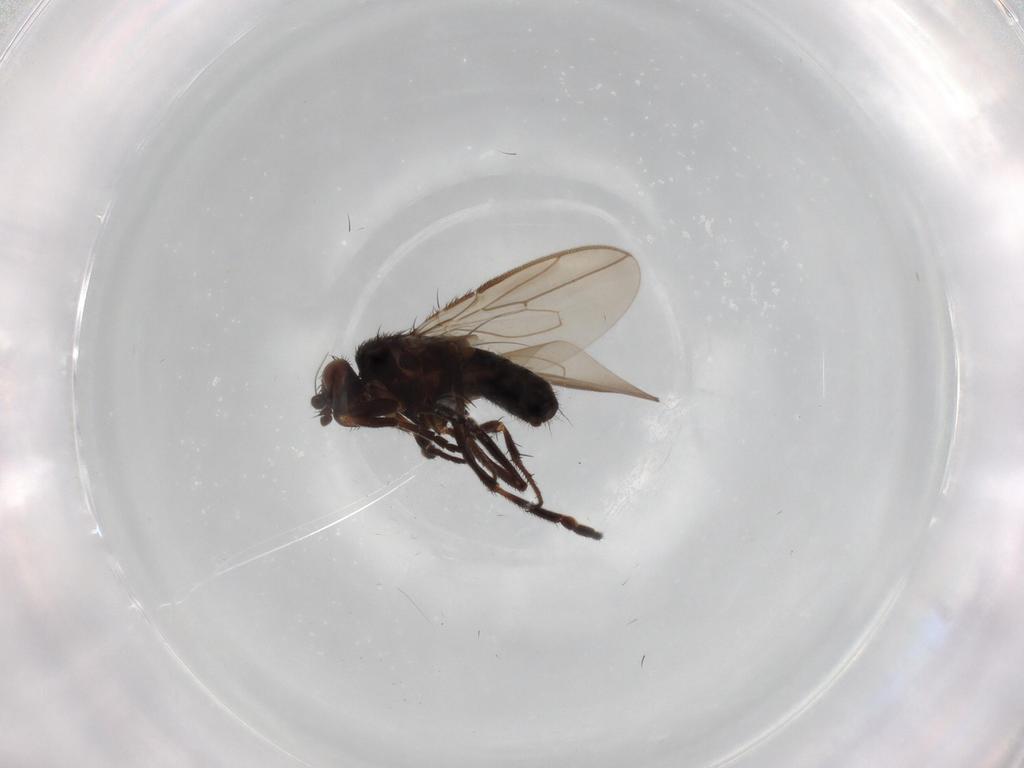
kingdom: Animalia
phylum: Arthropoda
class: Insecta
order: Diptera
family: Sphaeroceridae
